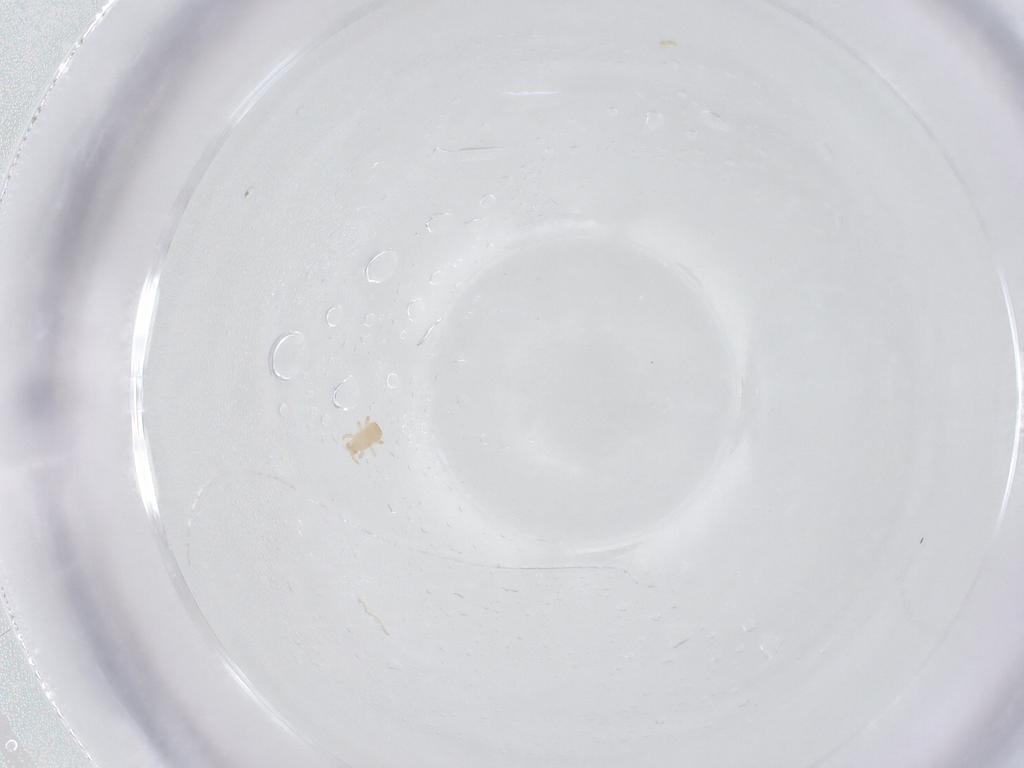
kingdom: Animalia
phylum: Arthropoda
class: Arachnida
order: Mesostigmata
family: Ascidae
